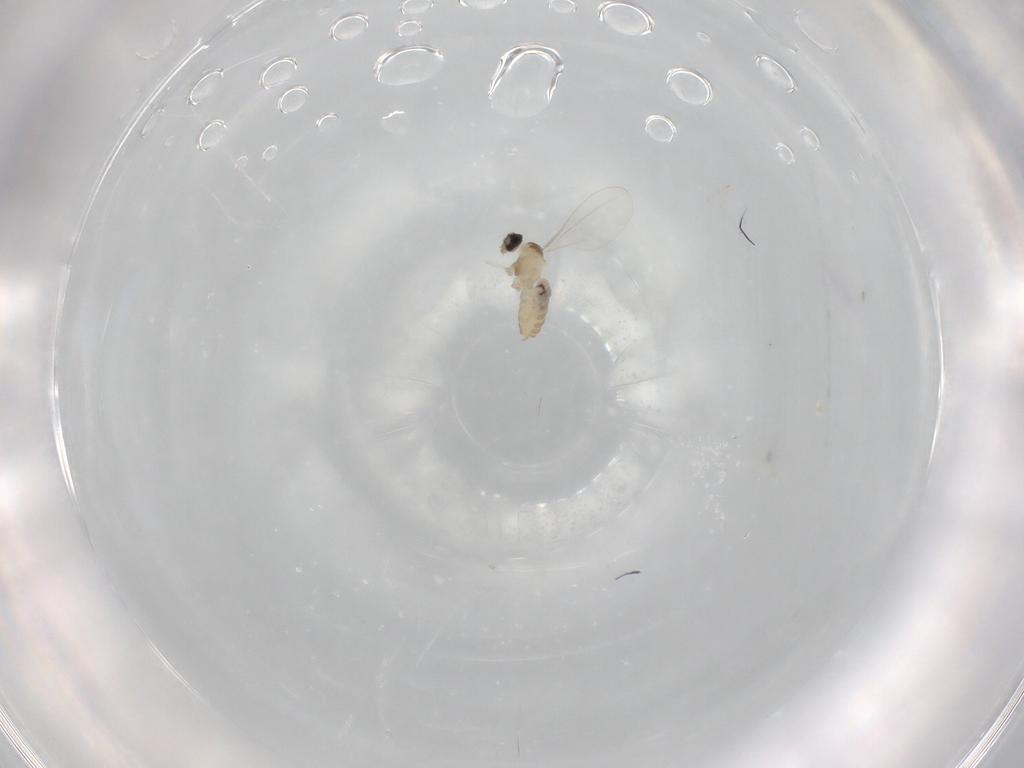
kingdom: Animalia
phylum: Arthropoda
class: Insecta
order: Diptera
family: Cecidomyiidae
